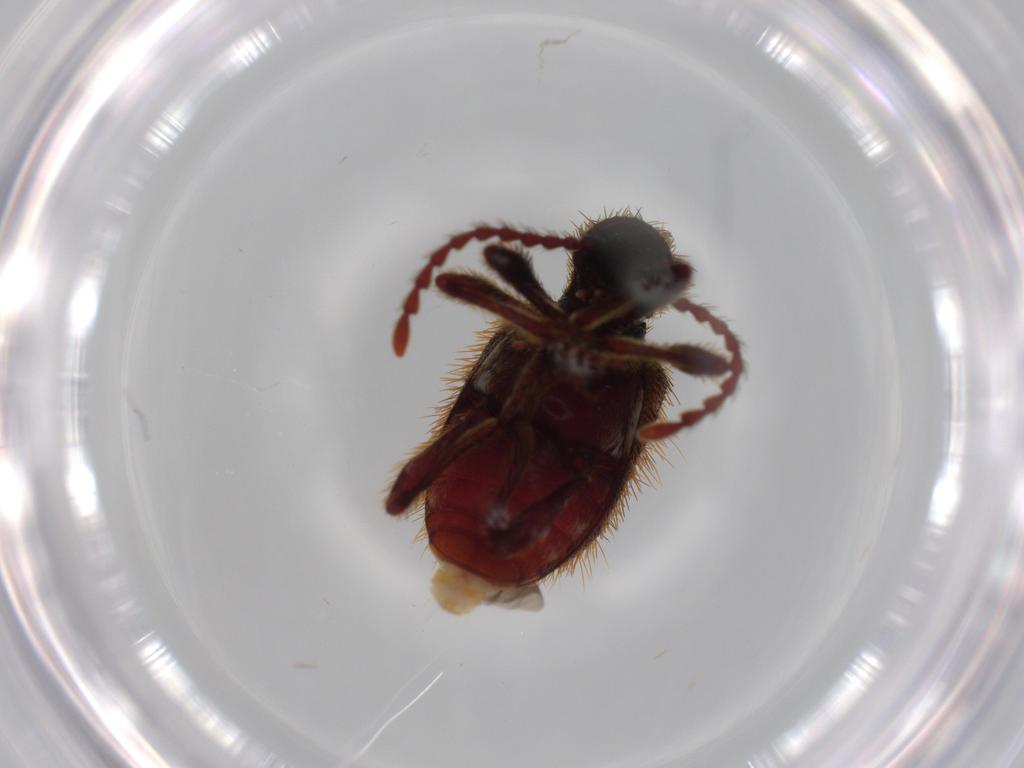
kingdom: Animalia
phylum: Arthropoda
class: Insecta
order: Coleoptera
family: Ptinidae
